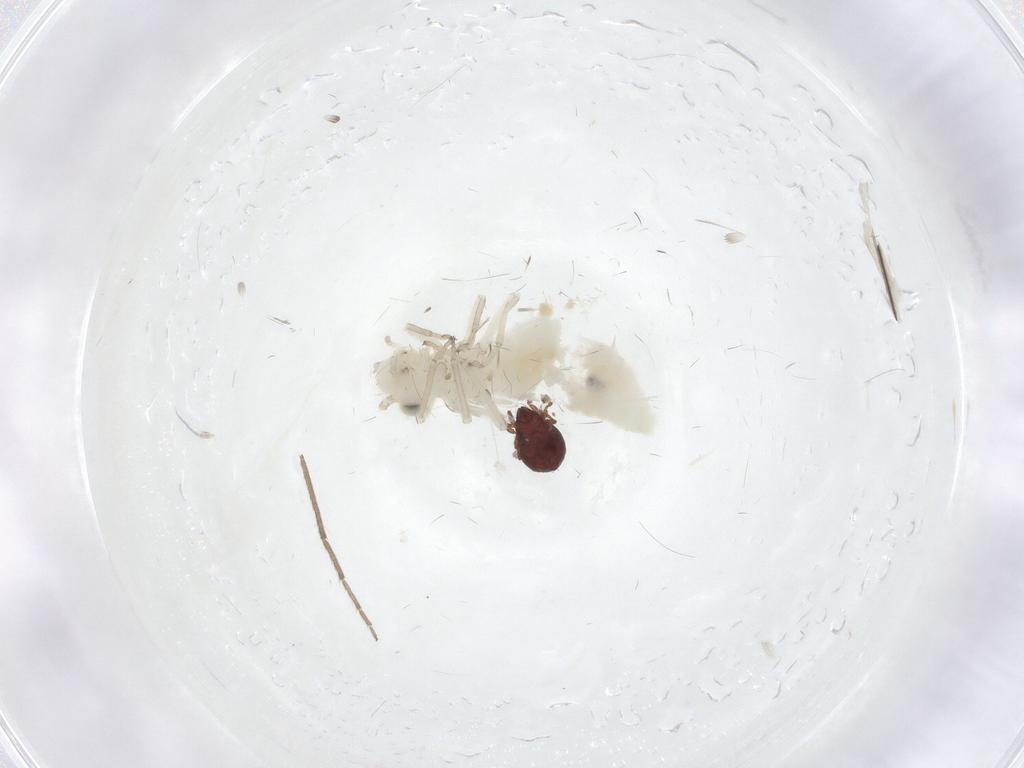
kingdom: Animalia
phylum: Arthropoda
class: Arachnida
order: Sarcoptiformes
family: Achipteriidae
